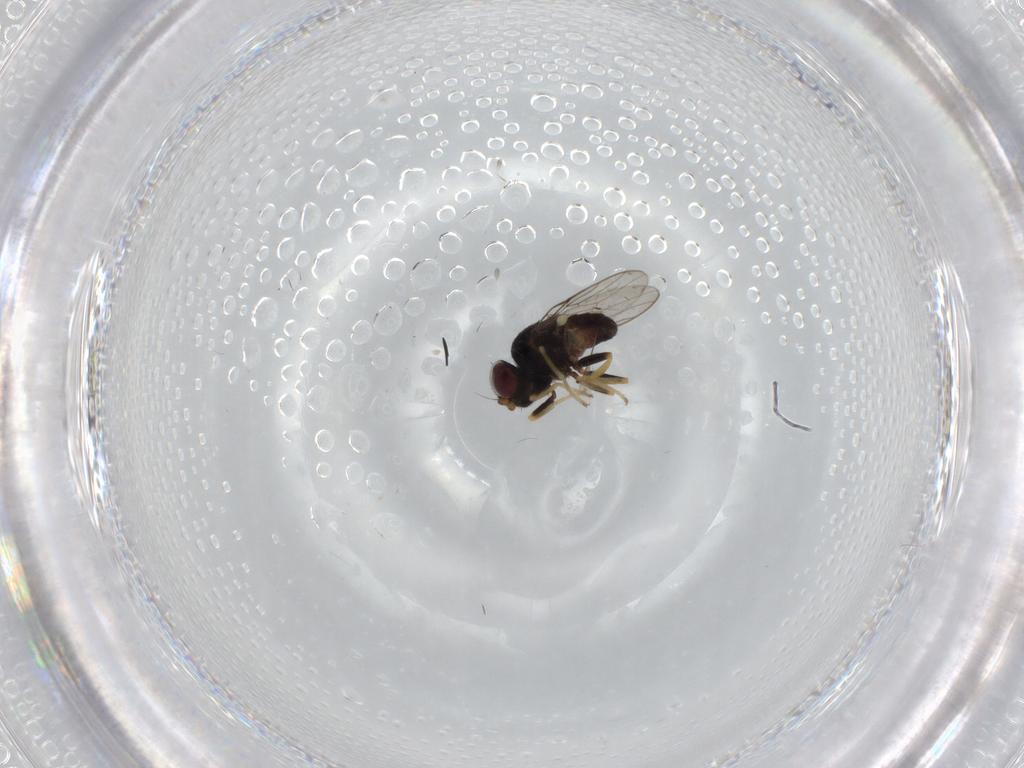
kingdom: Animalia
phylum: Arthropoda
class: Insecta
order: Diptera
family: Chloropidae
